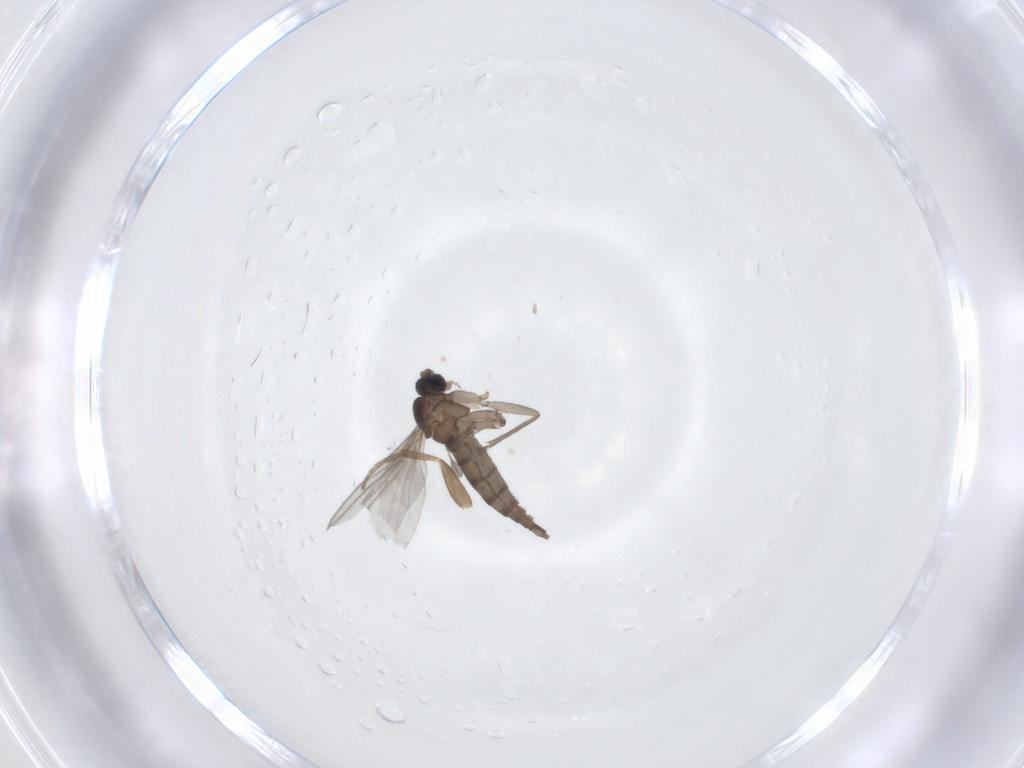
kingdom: Animalia
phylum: Arthropoda
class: Insecta
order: Diptera
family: Sciaridae
